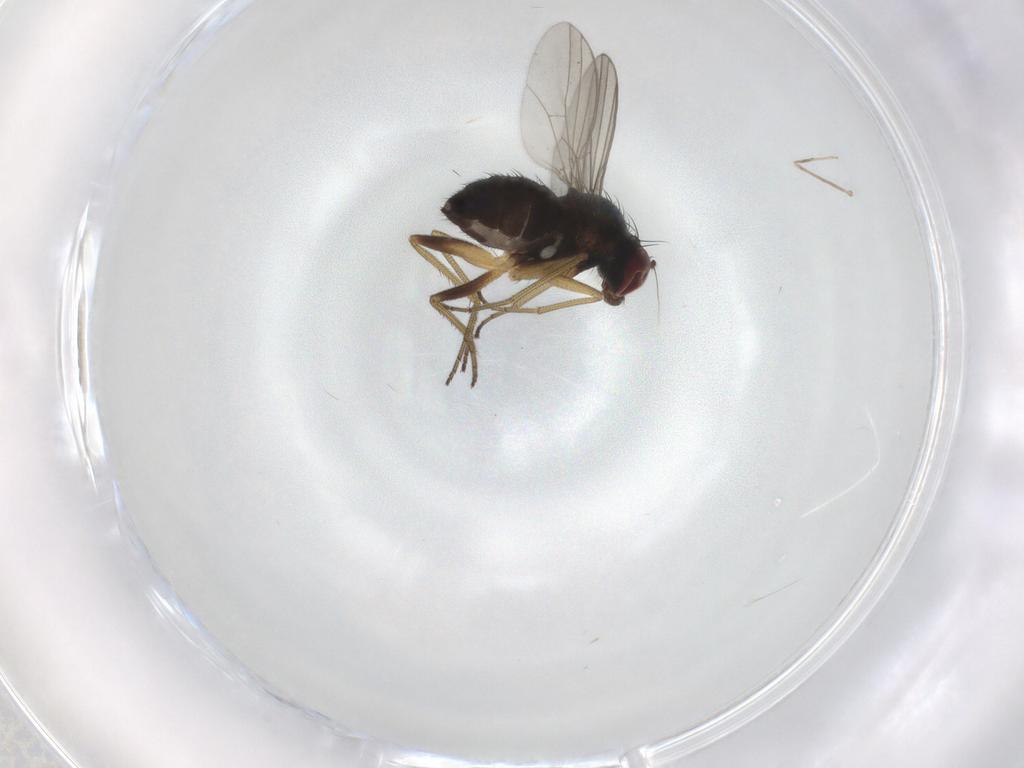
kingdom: Animalia
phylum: Arthropoda
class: Insecta
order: Diptera
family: Dolichopodidae
